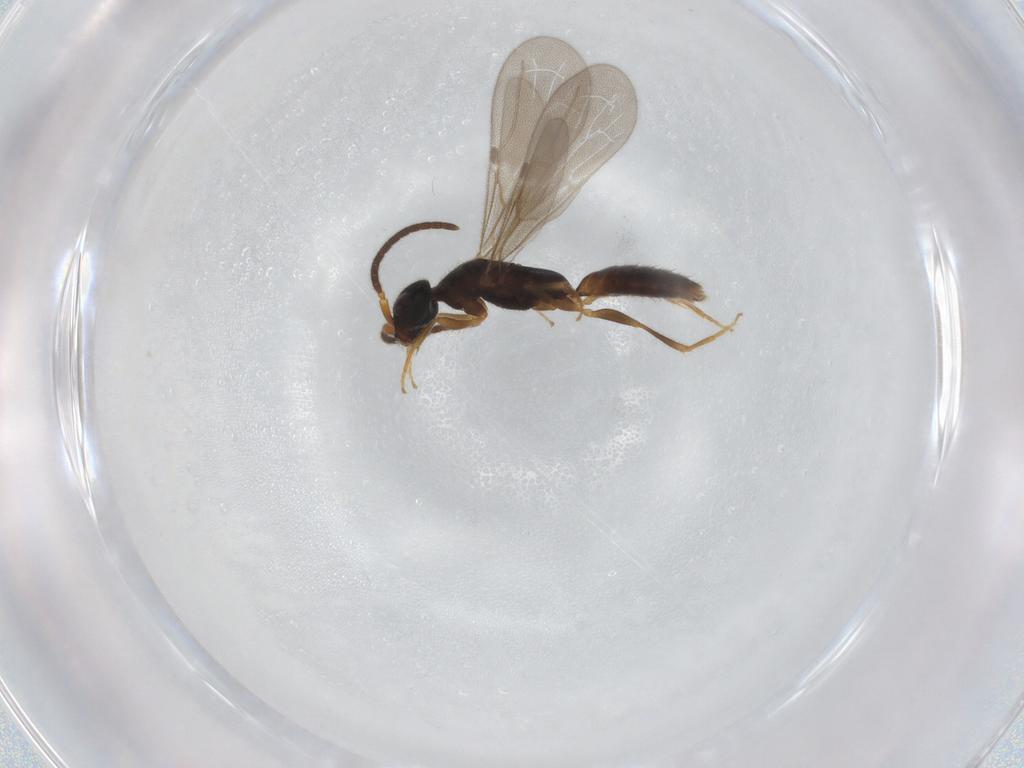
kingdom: Animalia
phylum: Arthropoda
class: Insecta
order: Hymenoptera
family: Bethylidae
